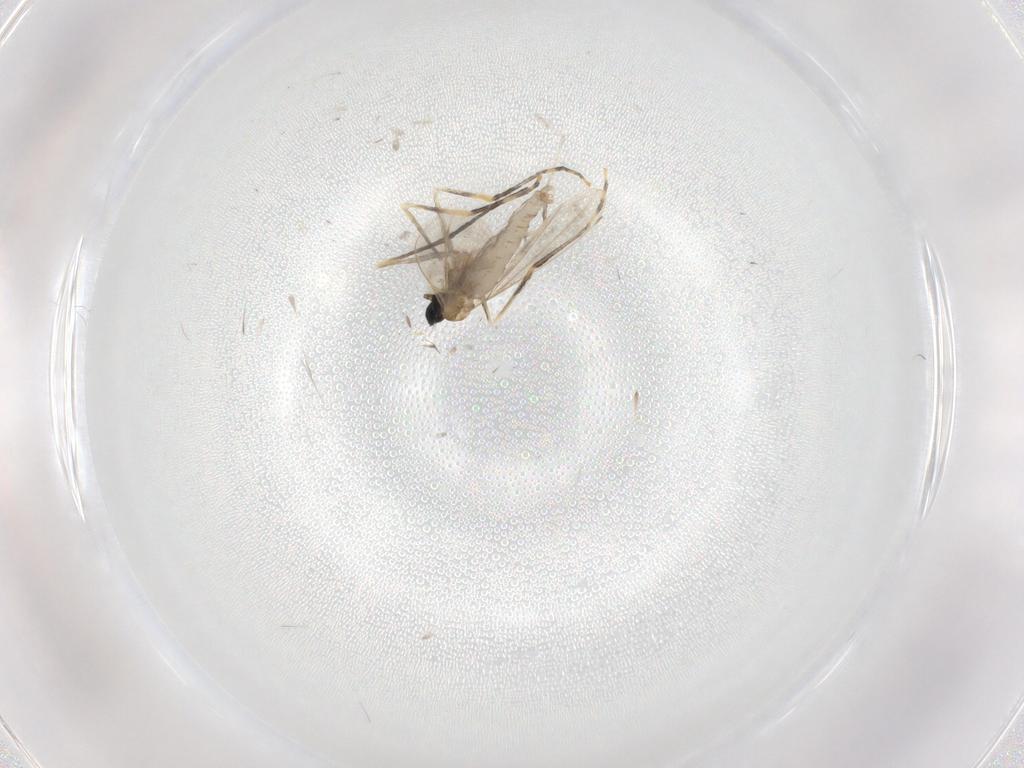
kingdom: Animalia
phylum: Arthropoda
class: Insecta
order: Diptera
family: Cecidomyiidae
